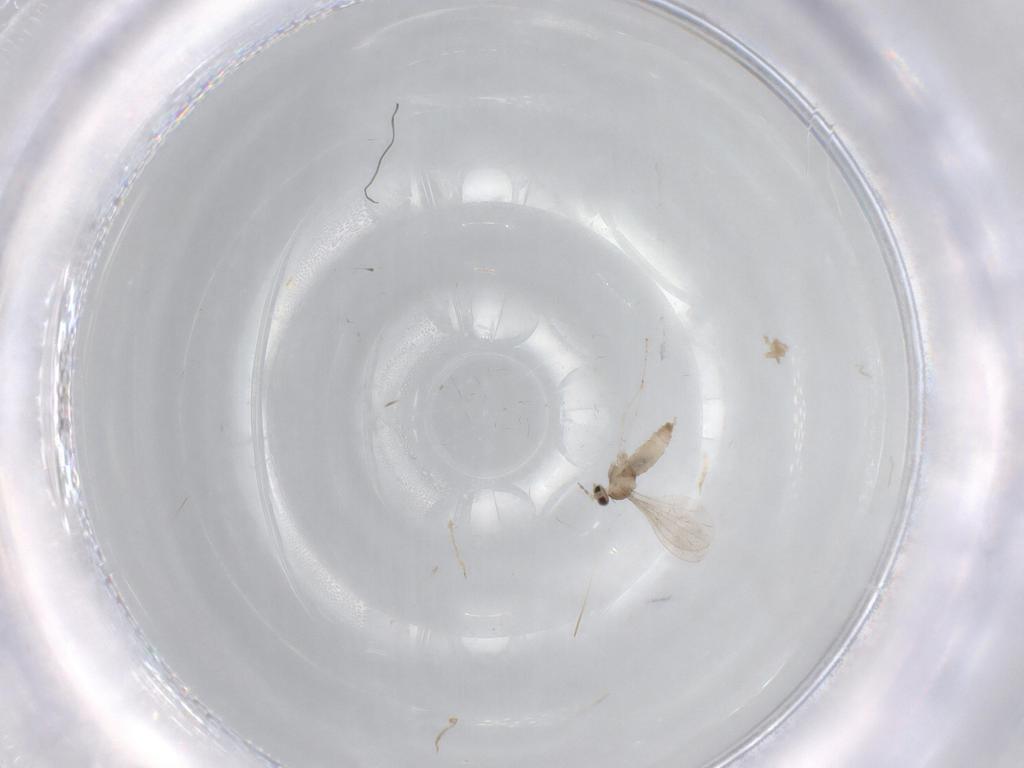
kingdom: Animalia
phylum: Arthropoda
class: Insecta
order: Diptera
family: Cecidomyiidae
